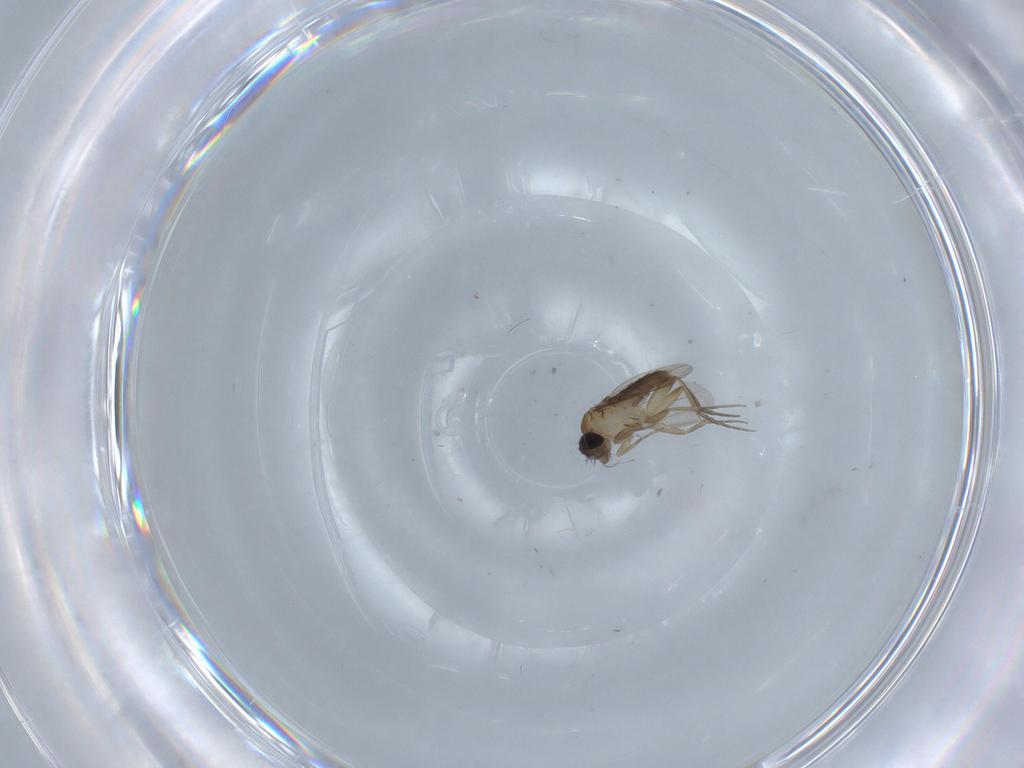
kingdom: Animalia
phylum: Arthropoda
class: Insecta
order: Diptera
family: Phoridae
